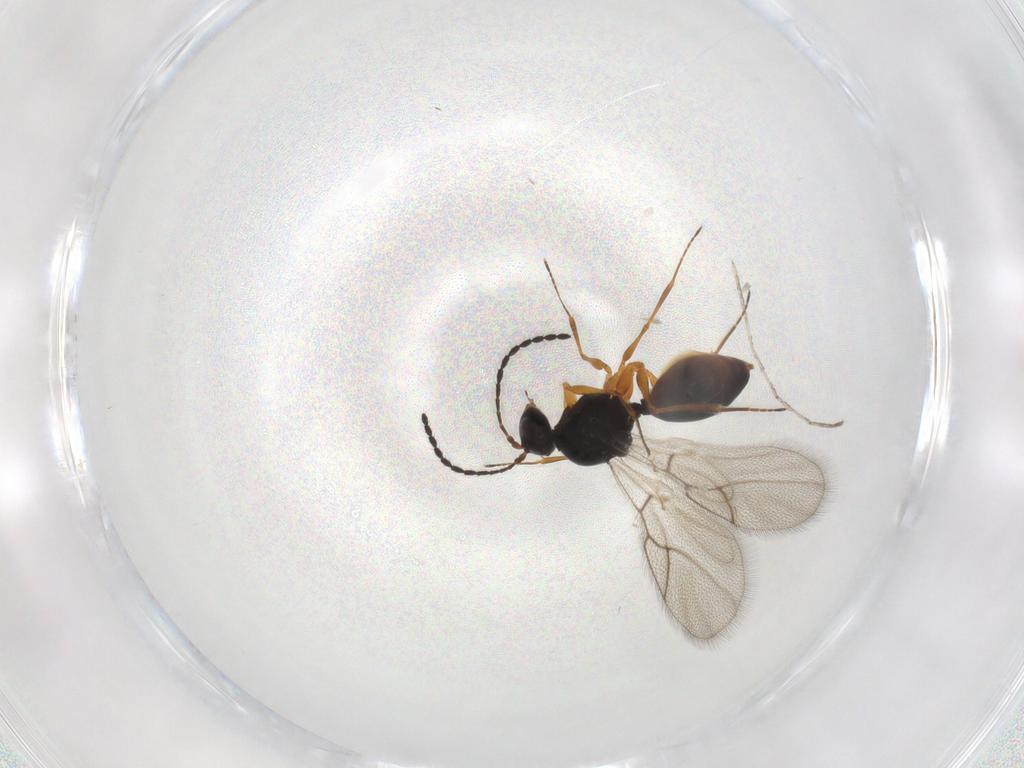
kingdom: Animalia
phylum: Arthropoda
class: Insecta
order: Hymenoptera
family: Figitidae
